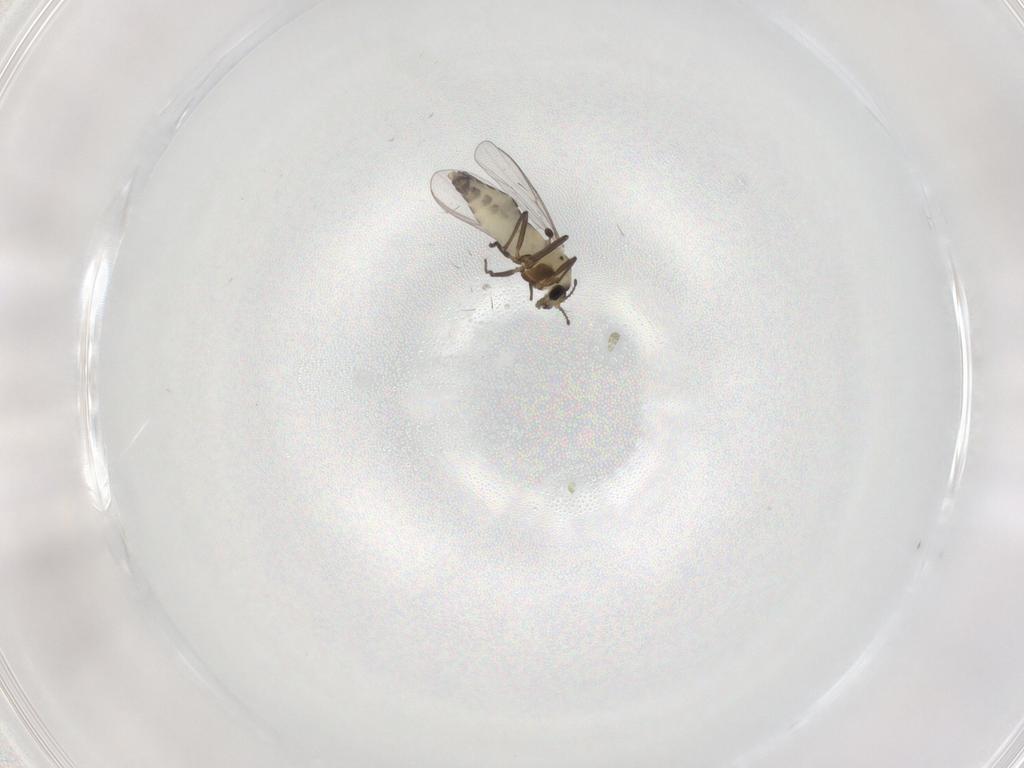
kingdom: Animalia
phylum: Arthropoda
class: Insecta
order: Diptera
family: Chironomidae
